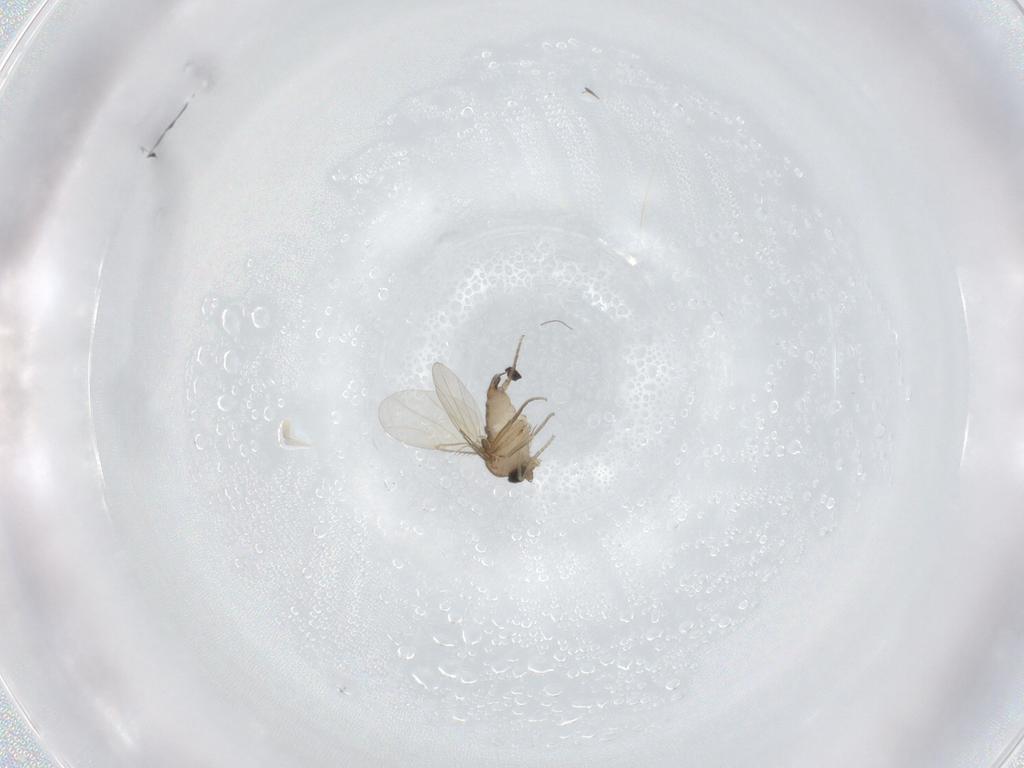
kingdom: Animalia
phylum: Arthropoda
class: Insecta
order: Diptera
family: Phoridae
